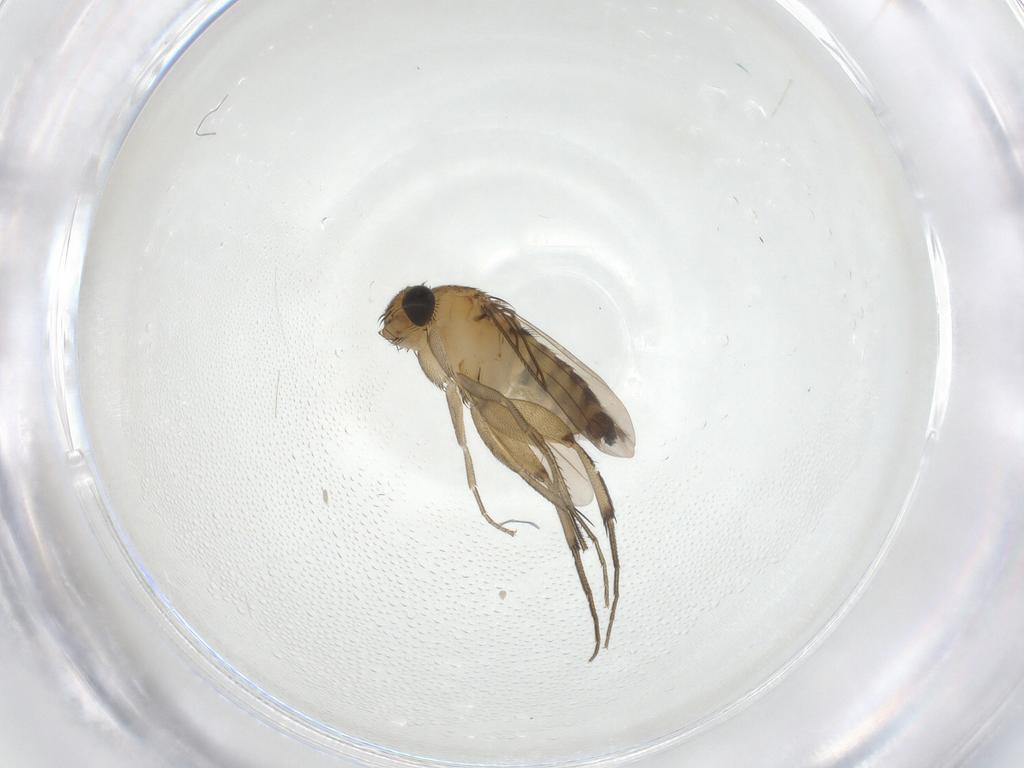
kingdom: Animalia
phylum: Arthropoda
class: Insecta
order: Diptera
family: Phoridae
